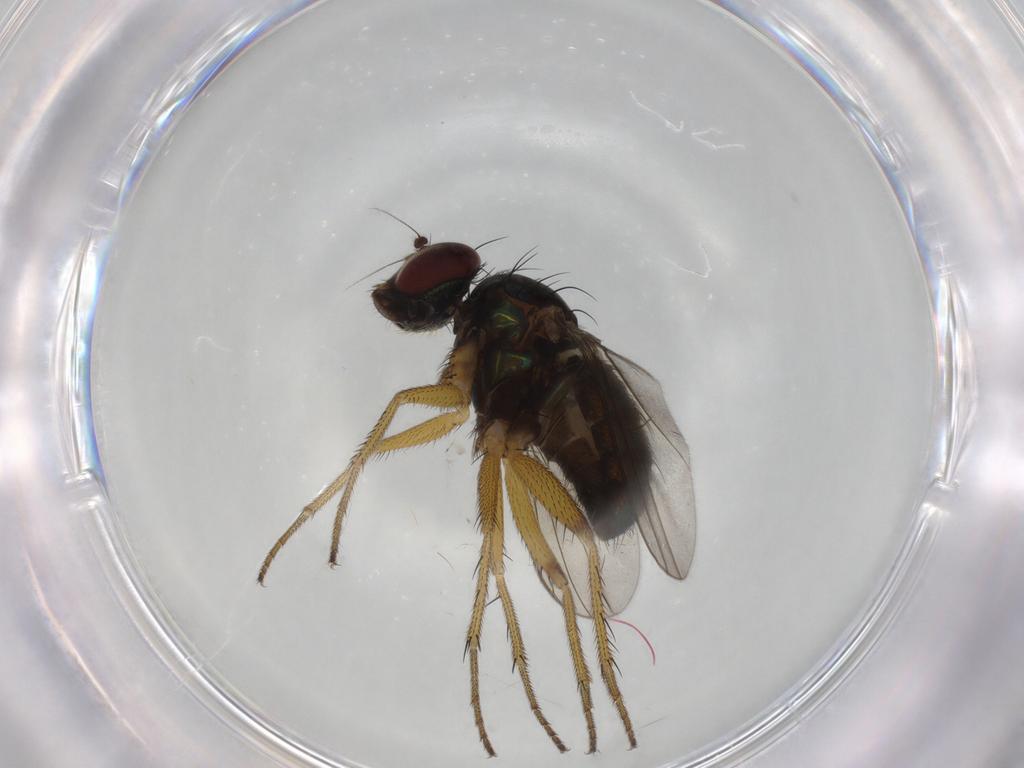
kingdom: Animalia
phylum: Arthropoda
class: Insecta
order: Diptera
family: Dolichopodidae
